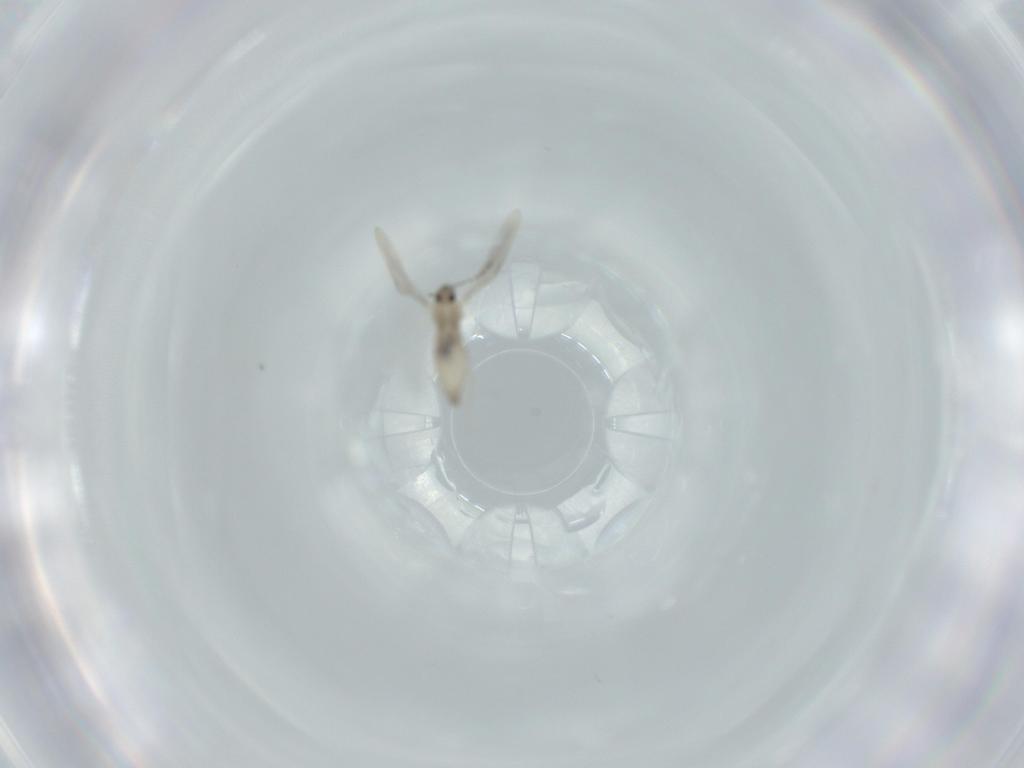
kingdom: Animalia
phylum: Arthropoda
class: Insecta
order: Diptera
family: Cecidomyiidae
